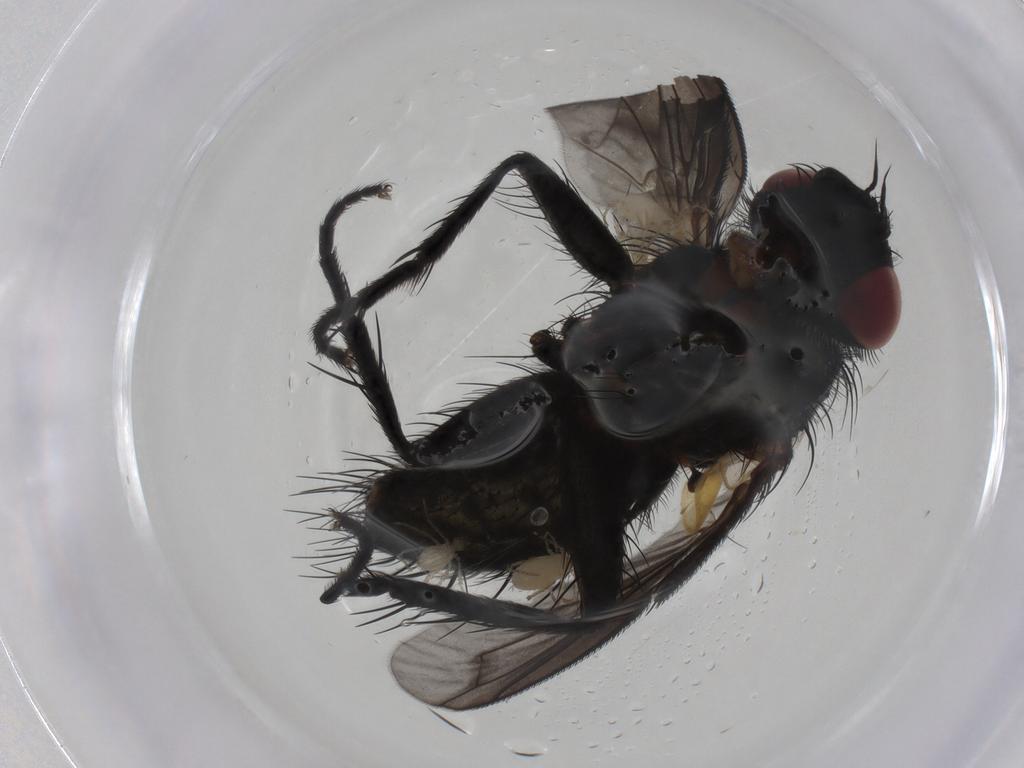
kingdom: Animalia
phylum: Arthropoda
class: Insecta
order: Diptera
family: Tachinidae
